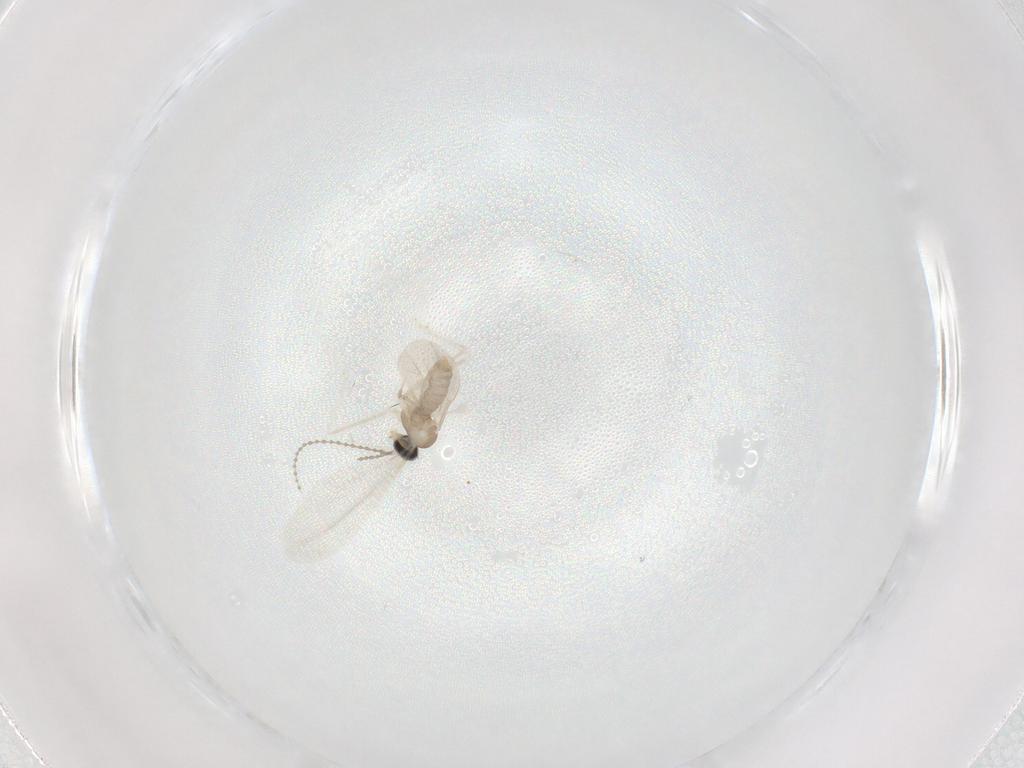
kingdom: Animalia
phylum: Arthropoda
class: Insecta
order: Diptera
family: Cecidomyiidae
